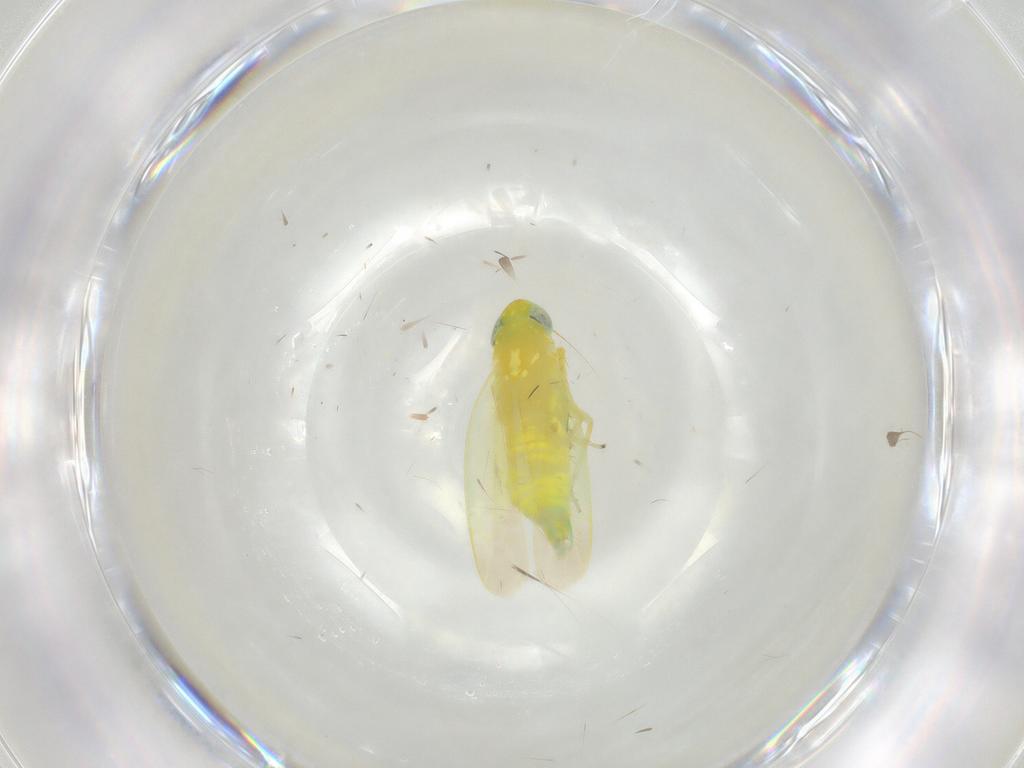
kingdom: Animalia
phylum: Arthropoda
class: Insecta
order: Hemiptera
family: Cicadellidae
